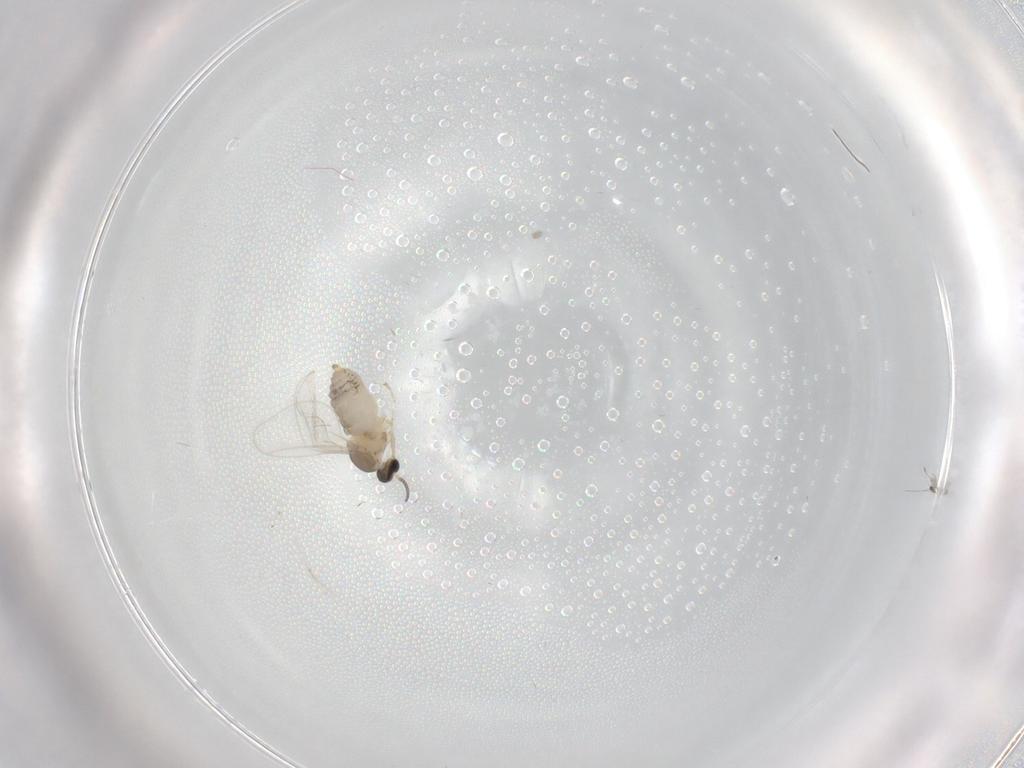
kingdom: Animalia
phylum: Arthropoda
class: Insecta
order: Diptera
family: Cecidomyiidae
